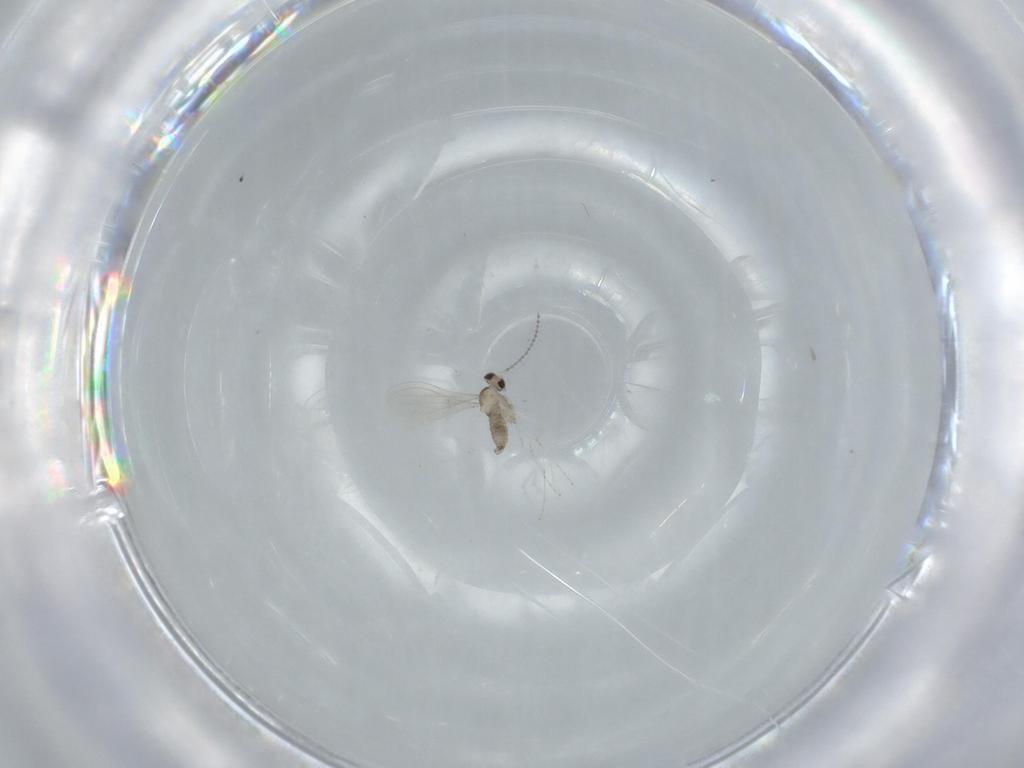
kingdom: Animalia
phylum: Arthropoda
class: Insecta
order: Diptera
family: Cecidomyiidae
